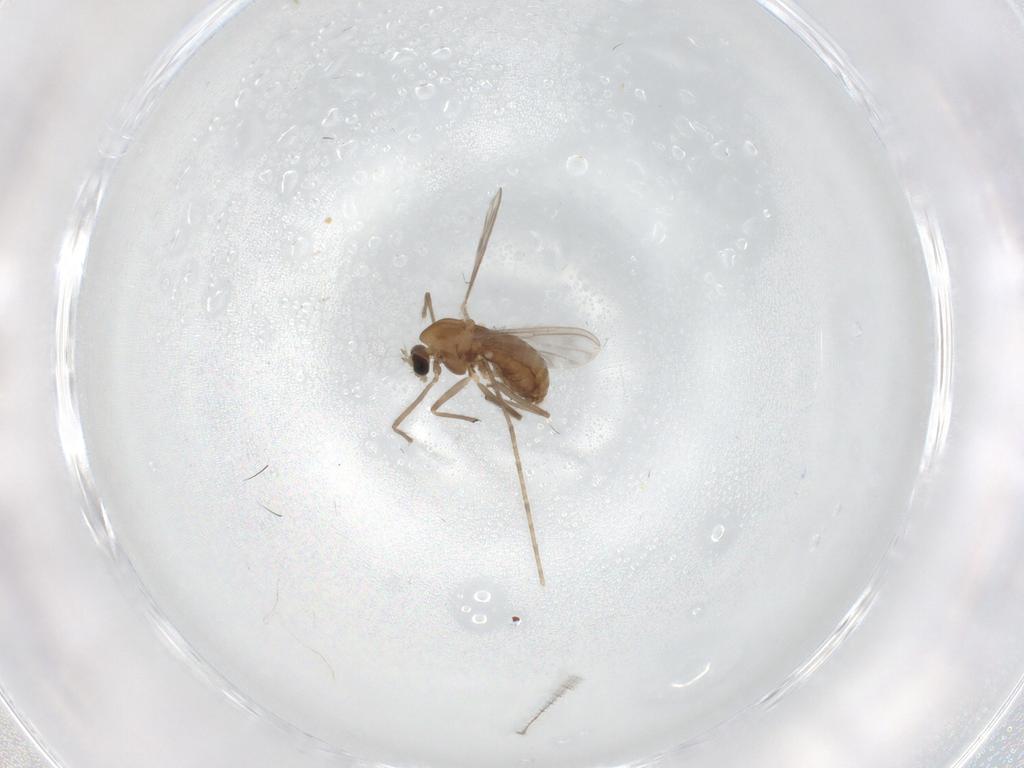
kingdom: Animalia
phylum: Arthropoda
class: Insecta
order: Diptera
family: Chironomidae
